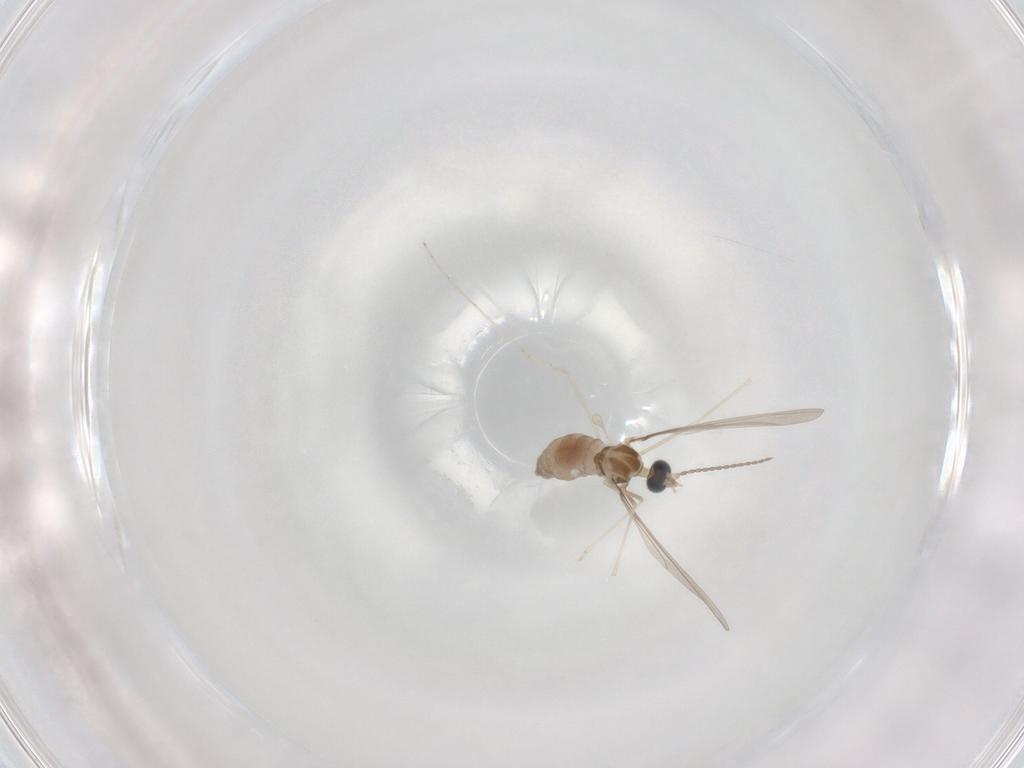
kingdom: Animalia
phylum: Arthropoda
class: Insecta
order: Diptera
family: Cecidomyiidae
